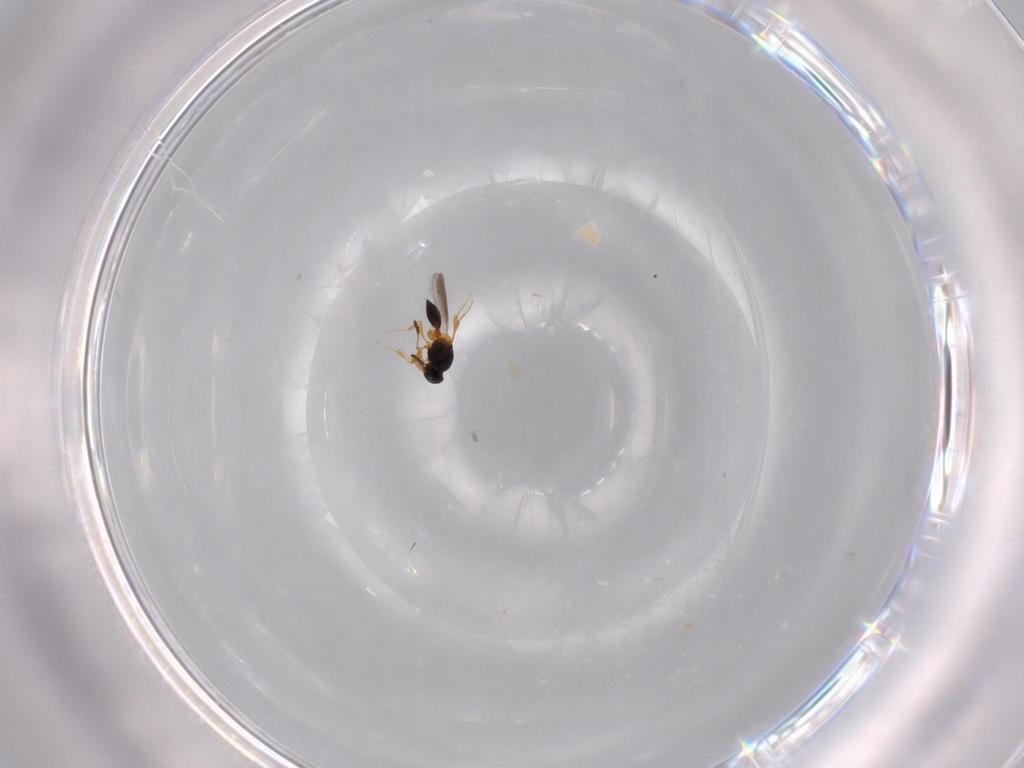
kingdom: Animalia
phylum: Arthropoda
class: Insecta
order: Hymenoptera
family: Platygastridae
